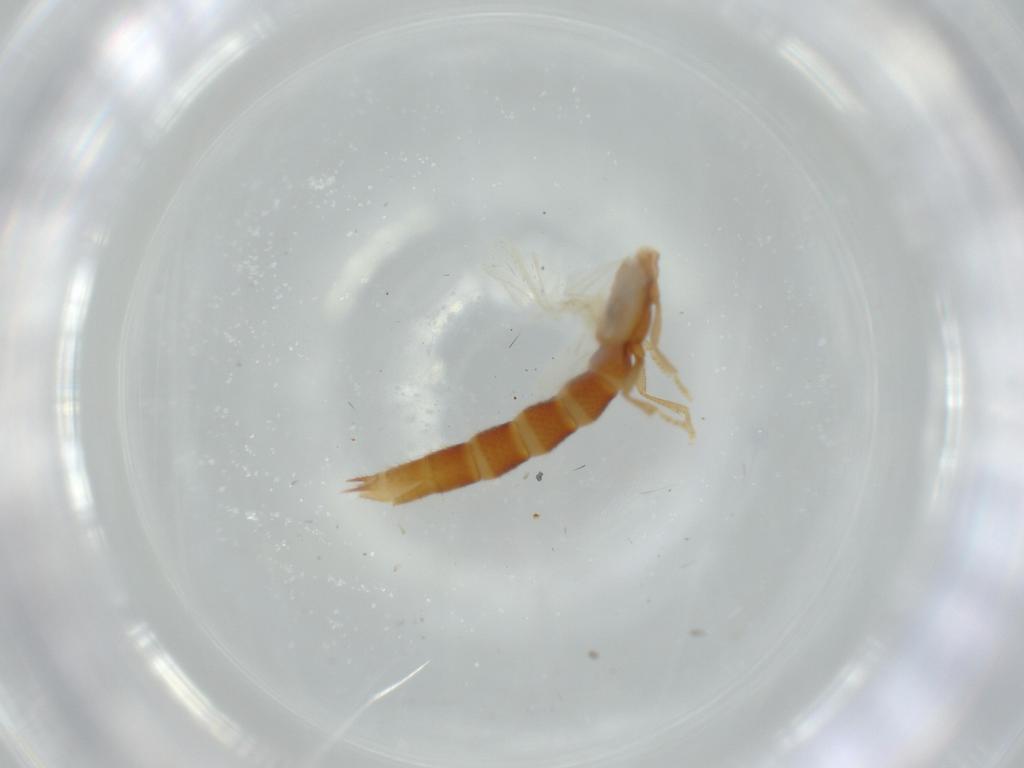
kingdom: Animalia
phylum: Arthropoda
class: Insecta
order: Coleoptera
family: Staphylinidae
